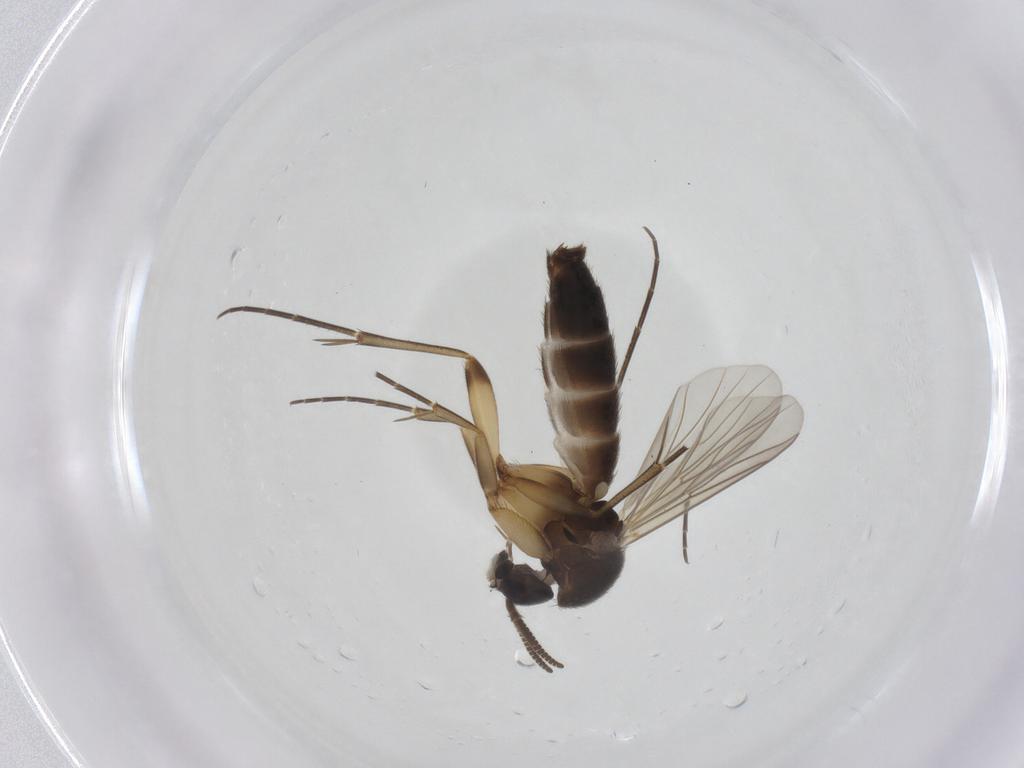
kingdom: Animalia
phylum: Arthropoda
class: Insecta
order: Diptera
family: Mycetophilidae
